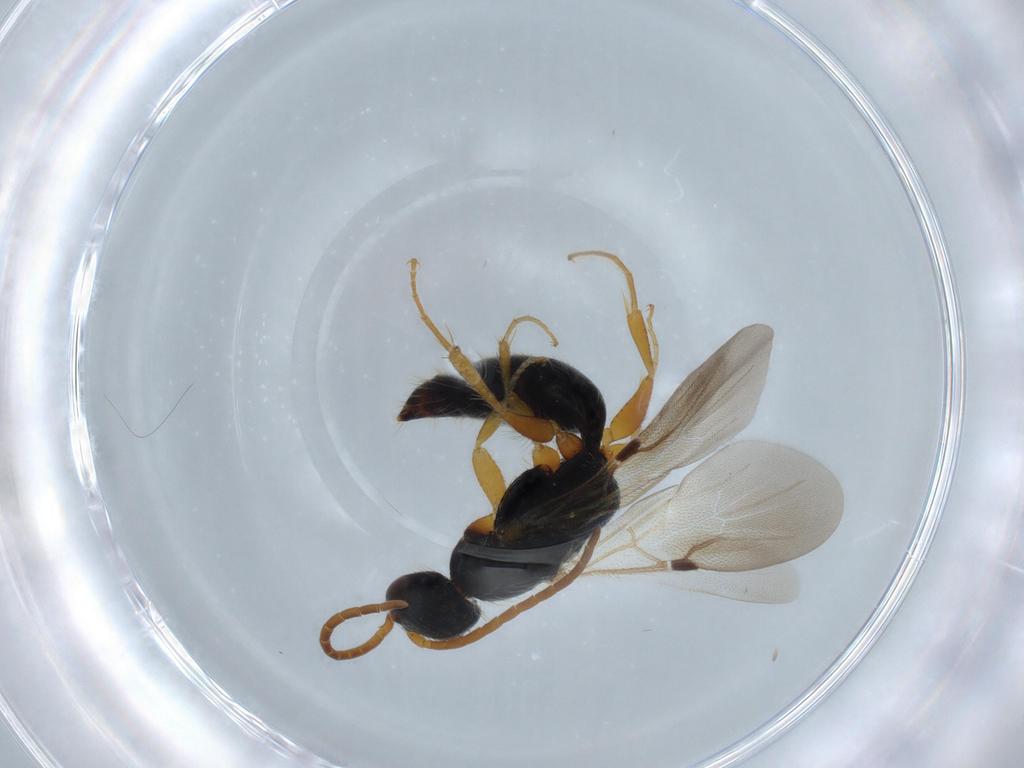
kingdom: Animalia
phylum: Arthropoda
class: Insecta
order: Hymenoptera
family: Bethylidae
